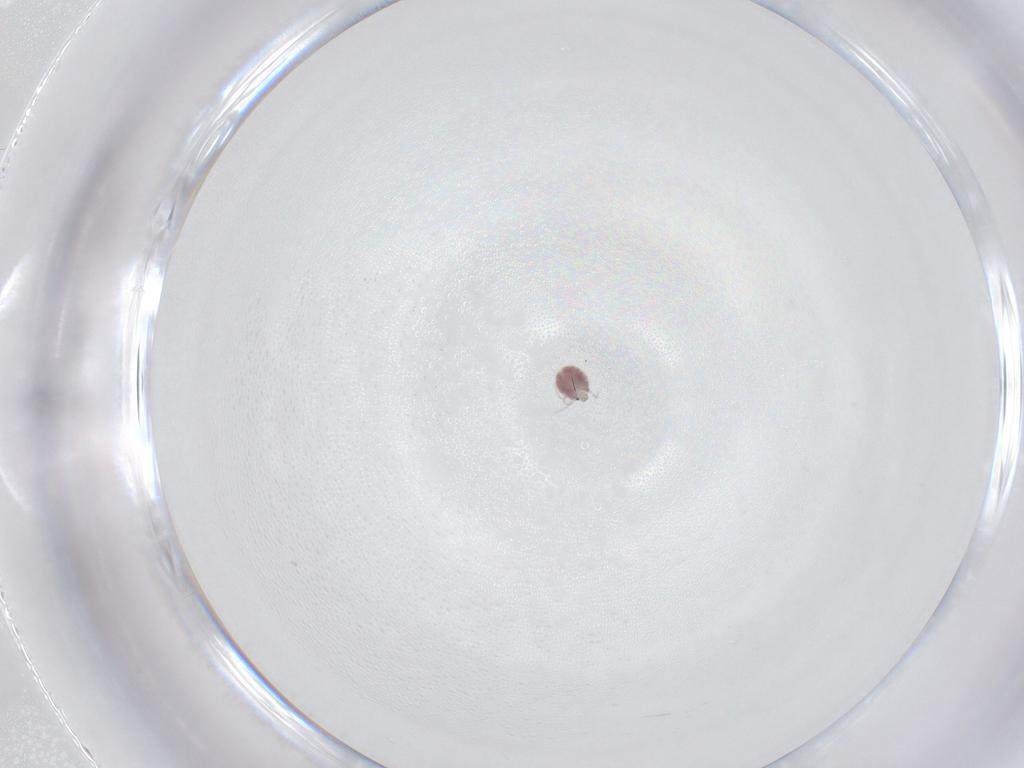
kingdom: Animalia
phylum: Arthropoda
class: Arachnida
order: Trombidiformes
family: Pionidae
